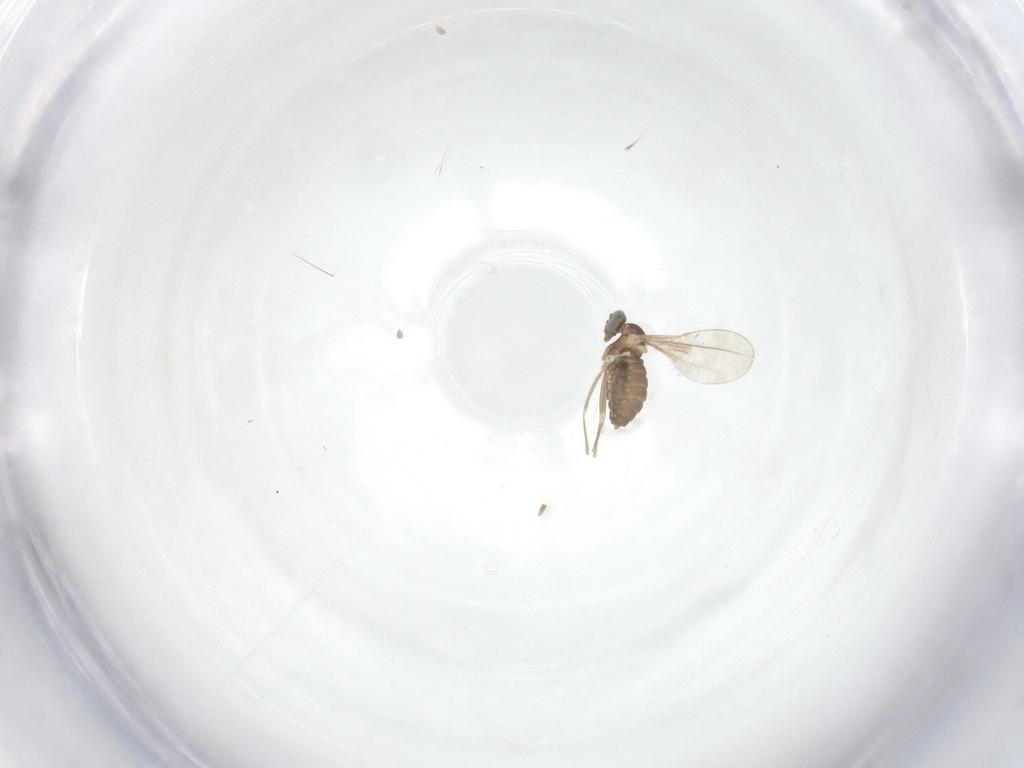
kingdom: Animalia
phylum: Arthropoda
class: Insecta
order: Diptera
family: Cecidomyiidae
